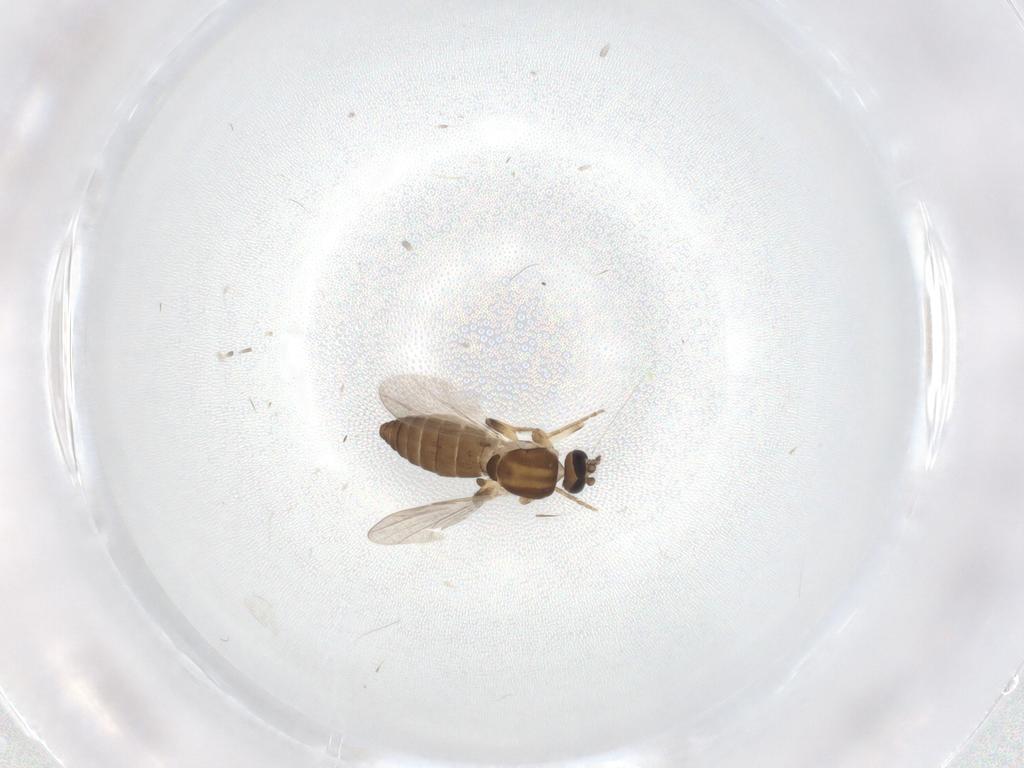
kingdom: Animalia
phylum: Arthropoda
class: Insecta
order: Diptera
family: Ceratopogonidae
